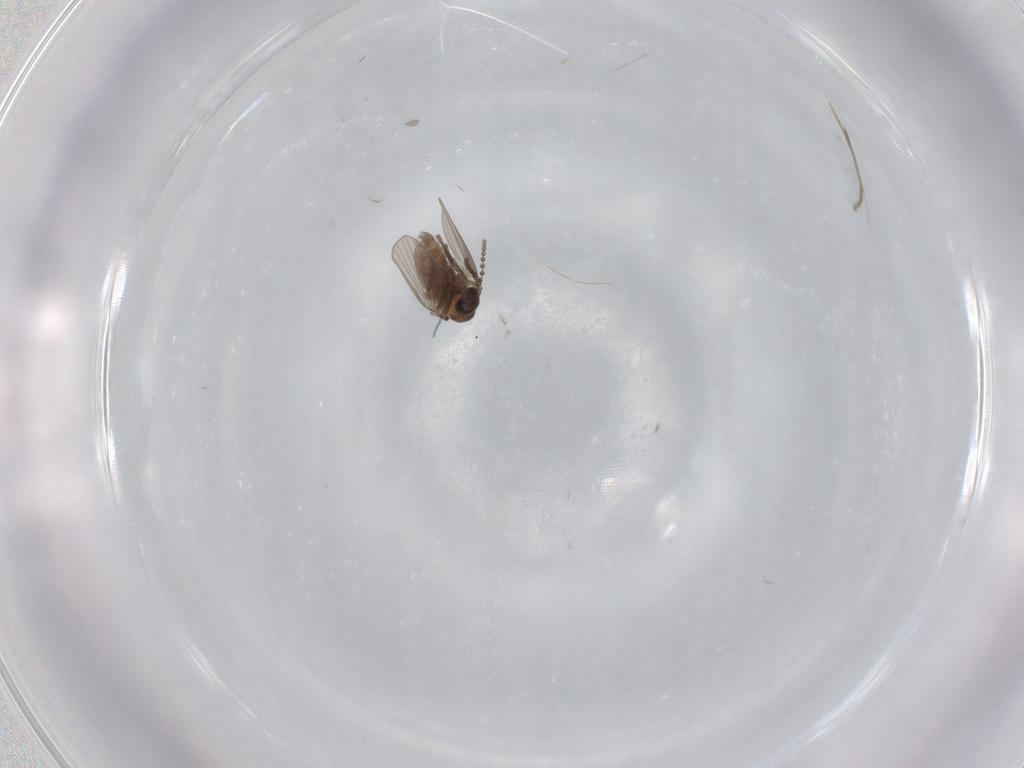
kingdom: Animalia
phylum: Arthropoda
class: Insecta
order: Diptera
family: Psychodidae
